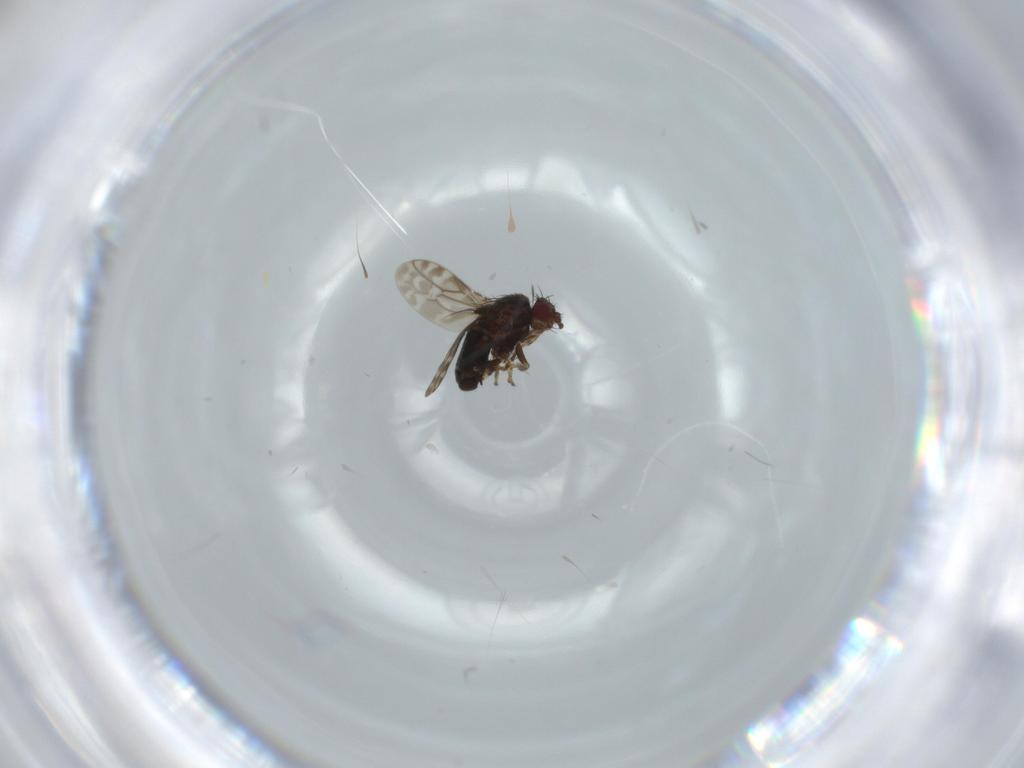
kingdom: Animalia
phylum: Arthropoda
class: Insecta
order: Diptera
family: Sphaeroceridae
